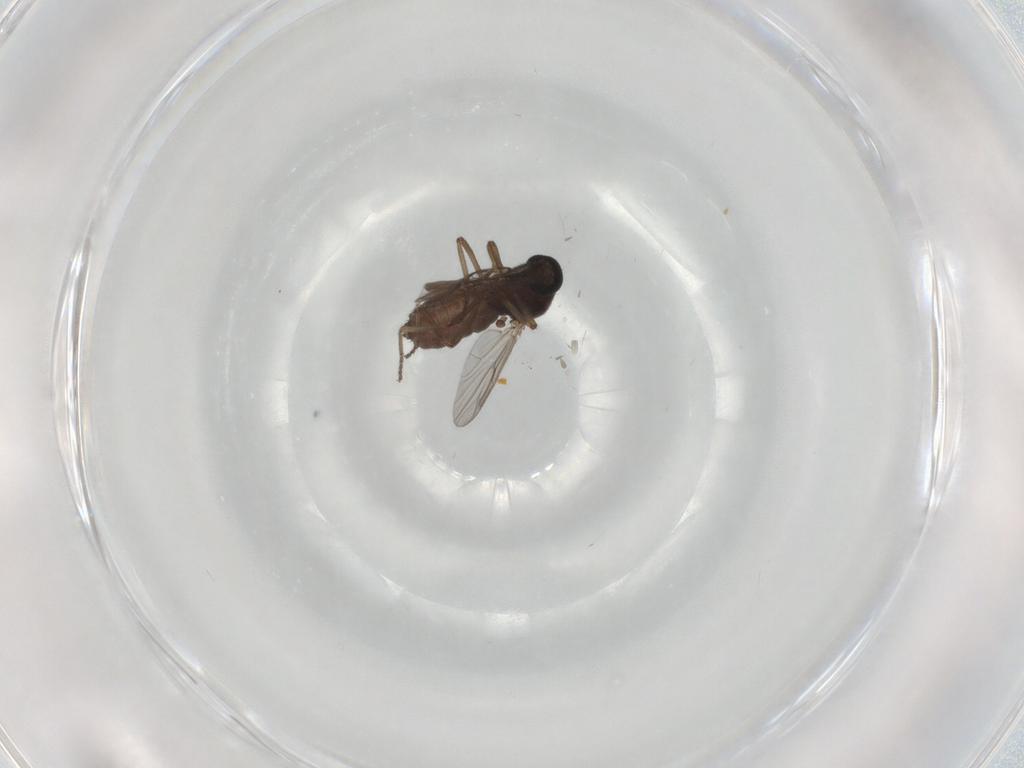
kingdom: Animalia
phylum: Arthropoda
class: Insecta
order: Diptera
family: Ceratopogonidae
